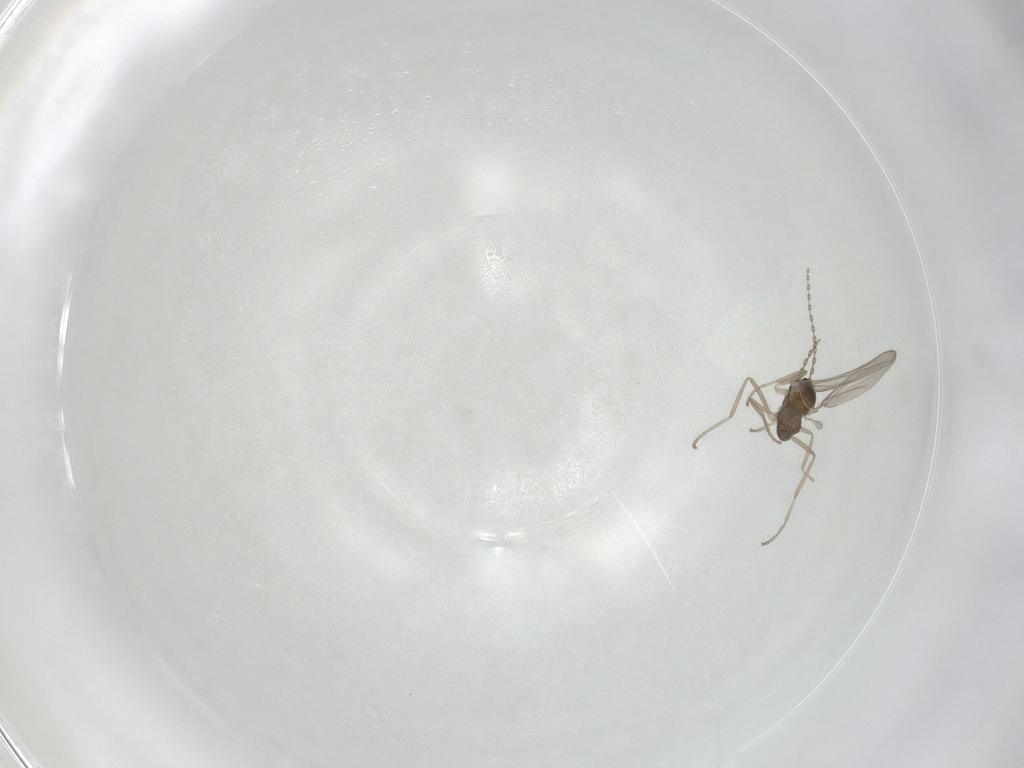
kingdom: Animalia
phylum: Arthropoda
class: Insecta
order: Diptera
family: Cecidomyiidae
